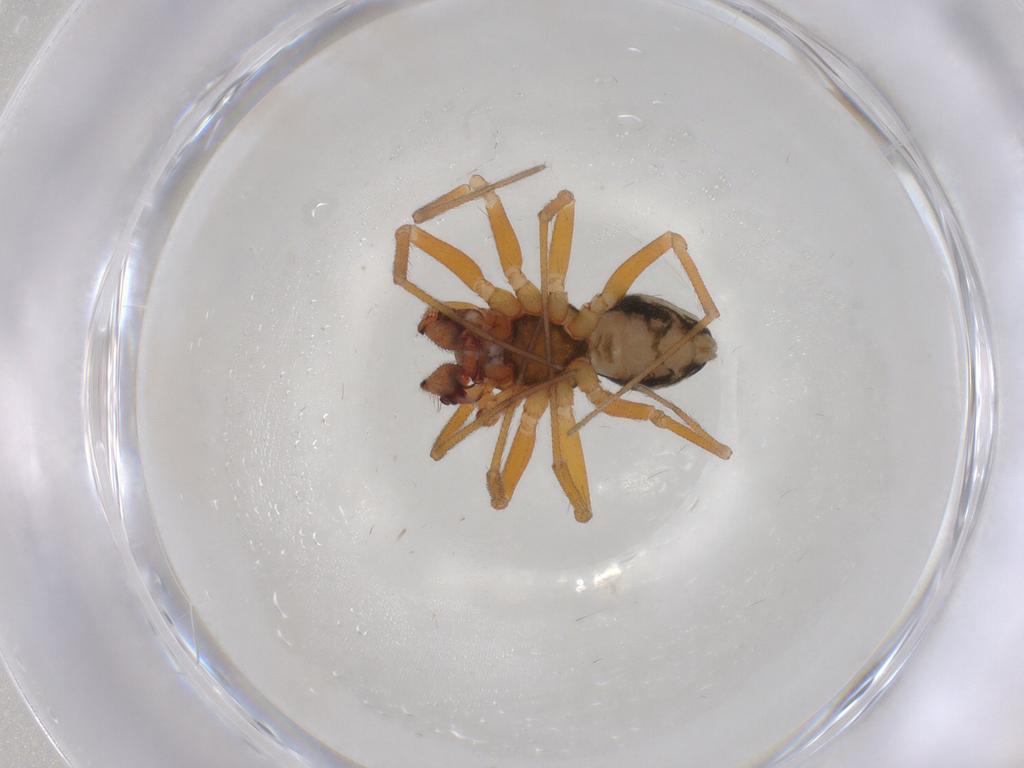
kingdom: Animalia
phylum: Arthropoda
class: Arachnida
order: Araneae
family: Linyphiidae
